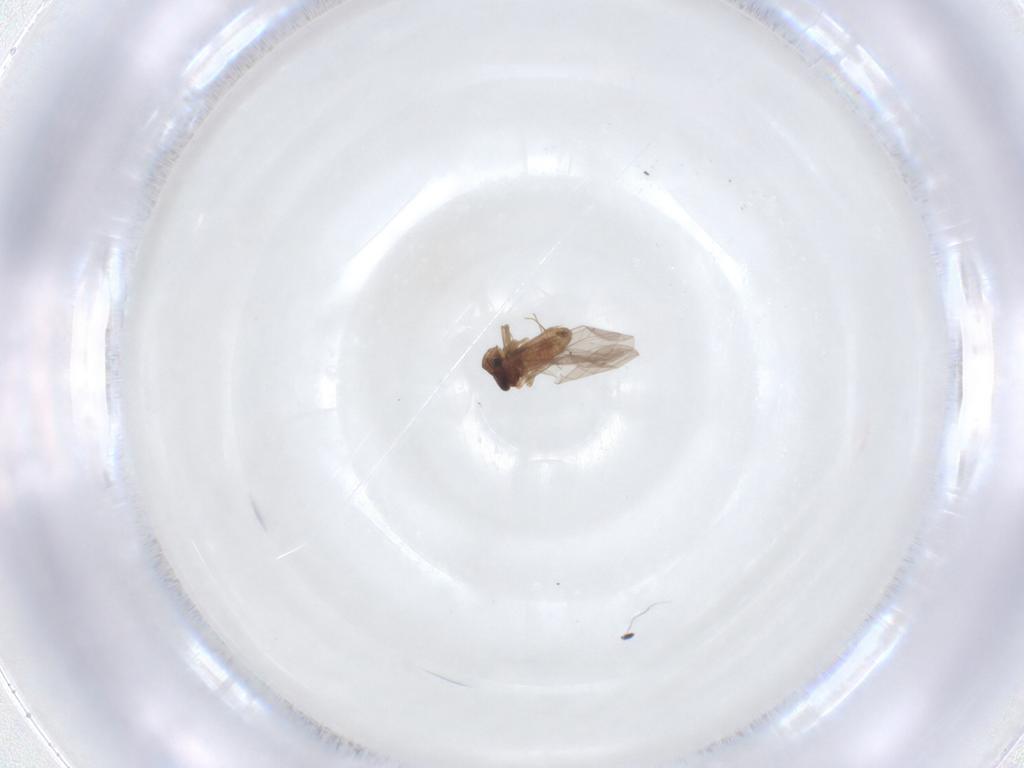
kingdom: Animalia
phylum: Arthropoda
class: Insecta
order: Psocodea
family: Lepidopsocidae
